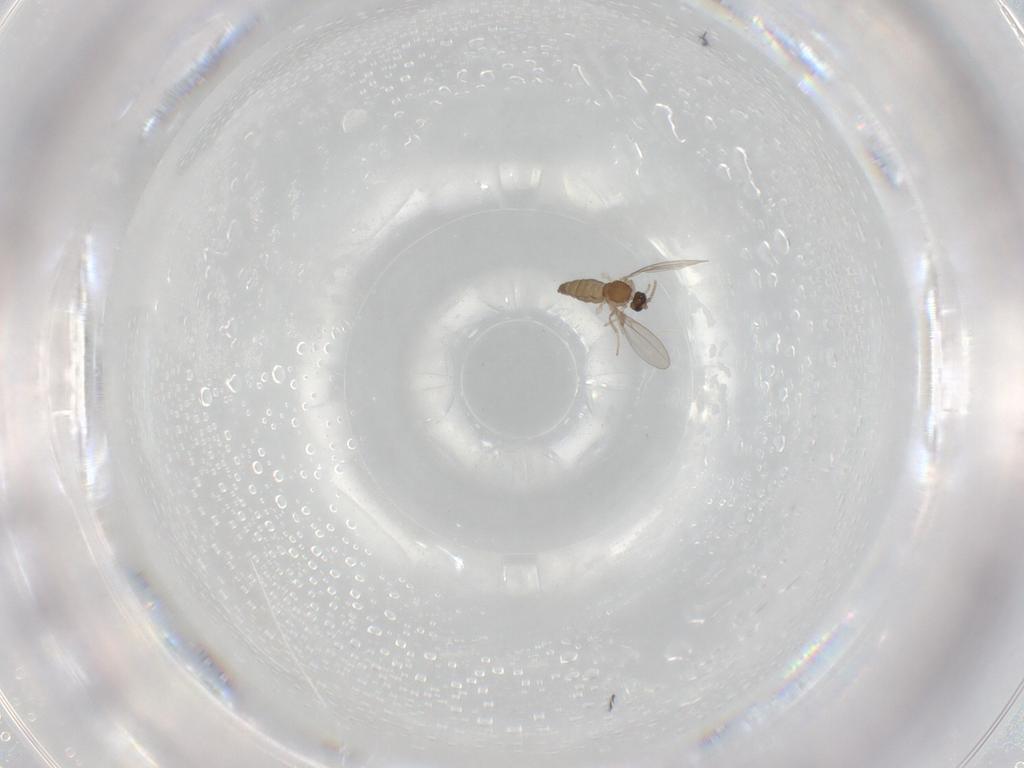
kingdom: Animalia
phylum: Arthropoda
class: Insecta
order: Diptera
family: Cecidomyiidae
